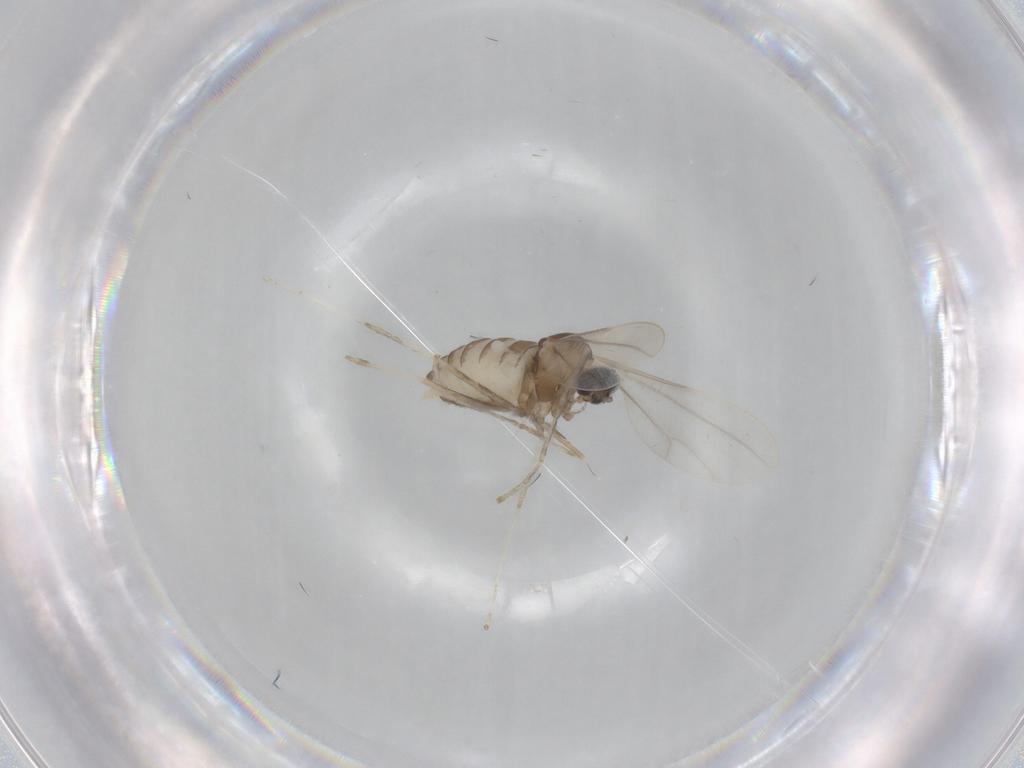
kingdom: Animalia
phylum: Arthropoda
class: Insecta
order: Diptera
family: Cecidomyiidae
